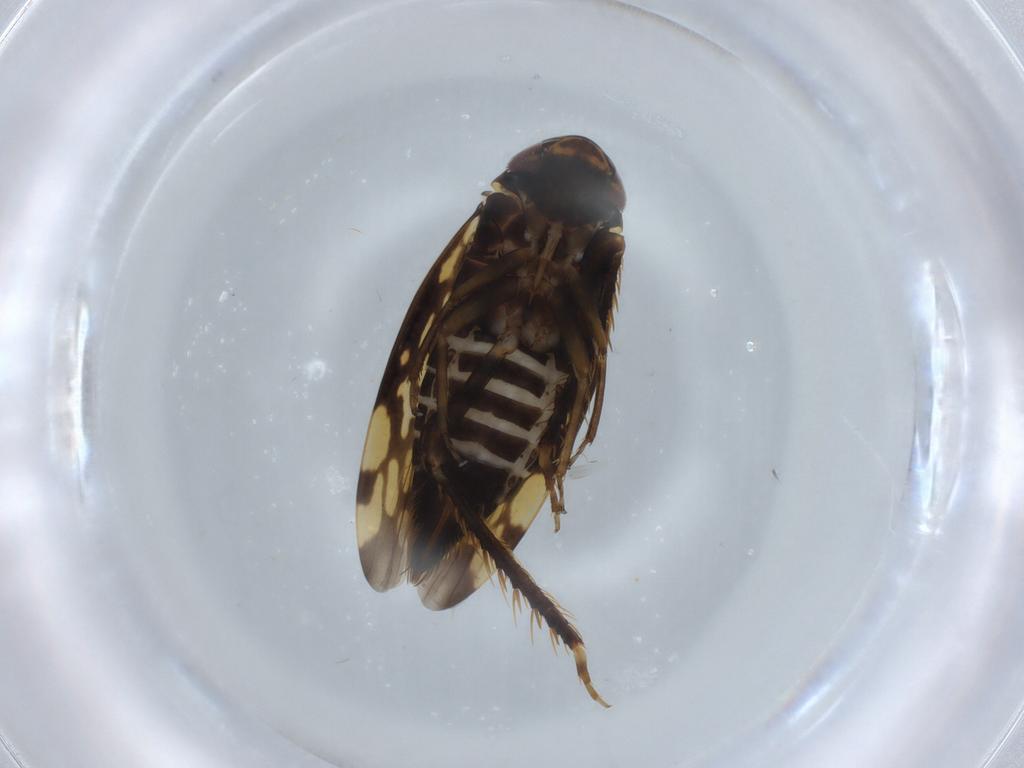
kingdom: Animalia
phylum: Arthropoda
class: Insecta
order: Hemiptera
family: Cicadellidae
